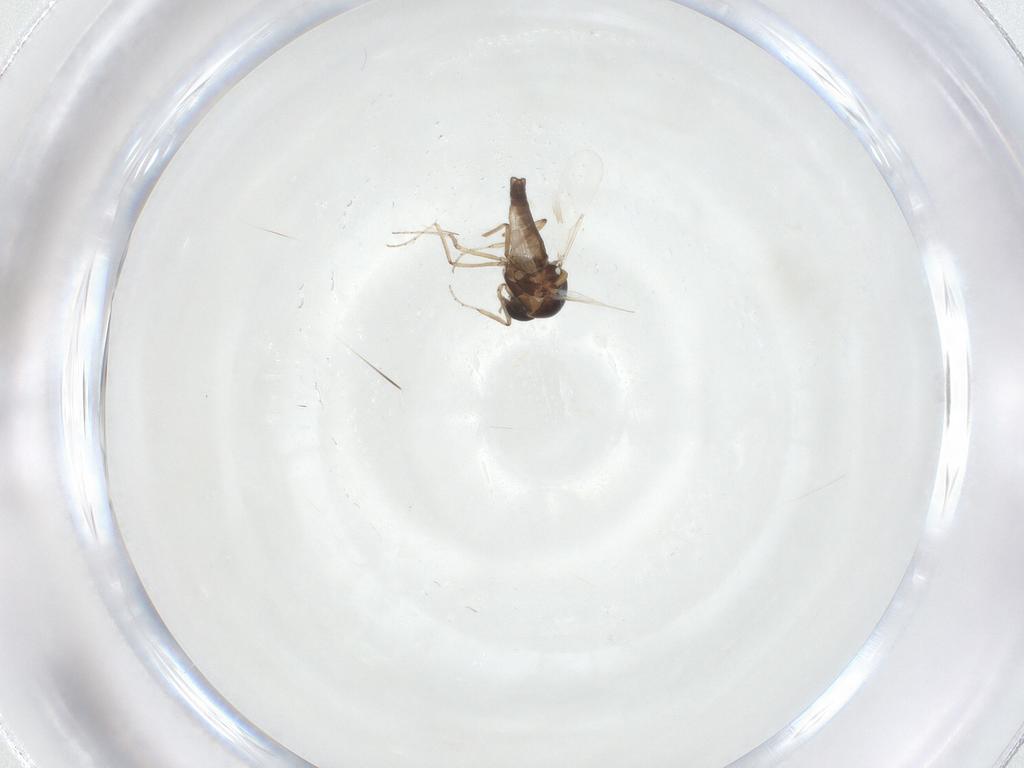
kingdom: Animalia
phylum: Arthropoda
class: Insecta
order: Diptera
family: Ceratopogonidae
